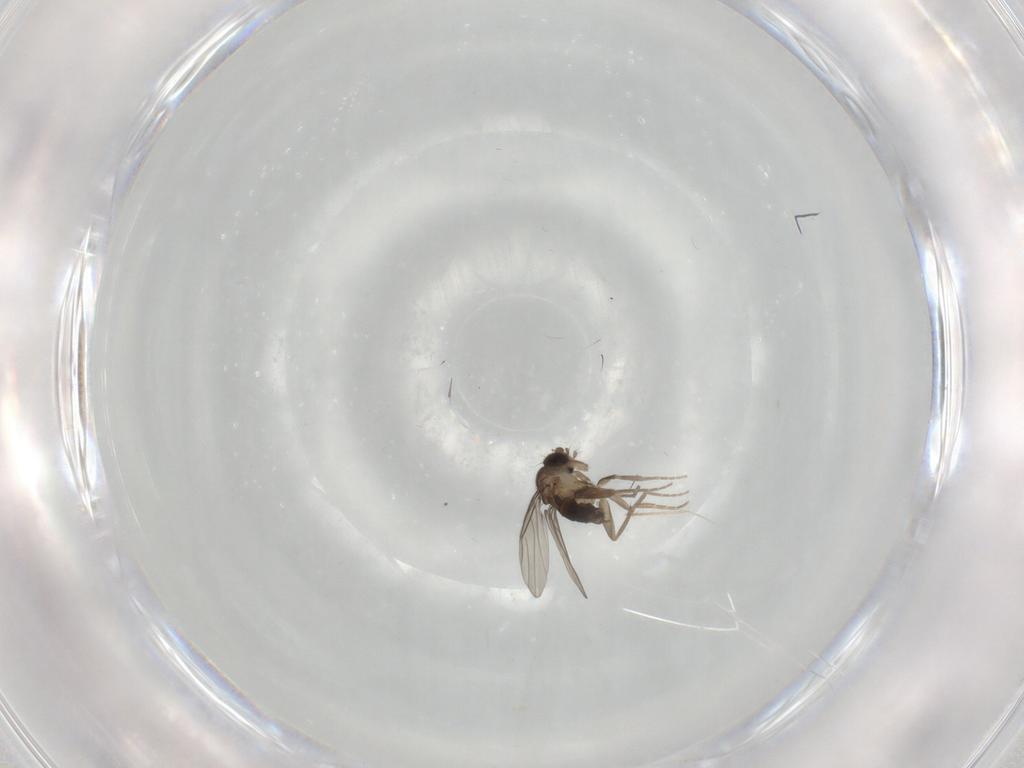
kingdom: Animalia
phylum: Arthropoda
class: Insecta
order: Diptera
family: Phoridae
